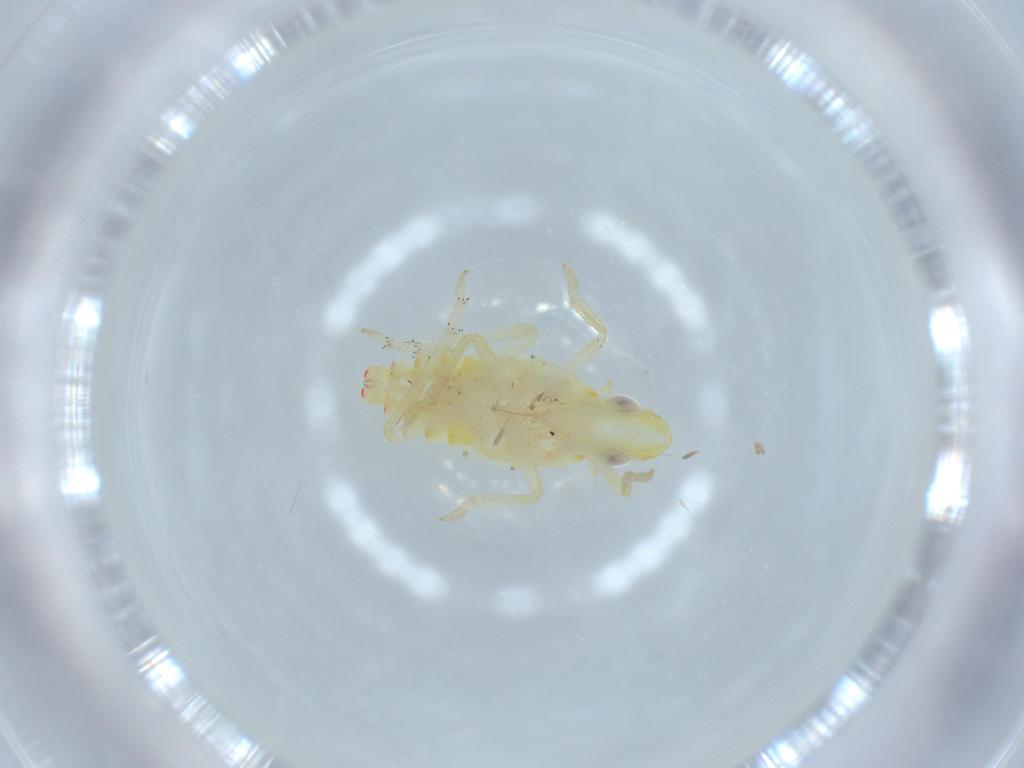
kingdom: Animalia
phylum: Arthropoda
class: Insecta
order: Hemiptera
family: Tropiduchidae
